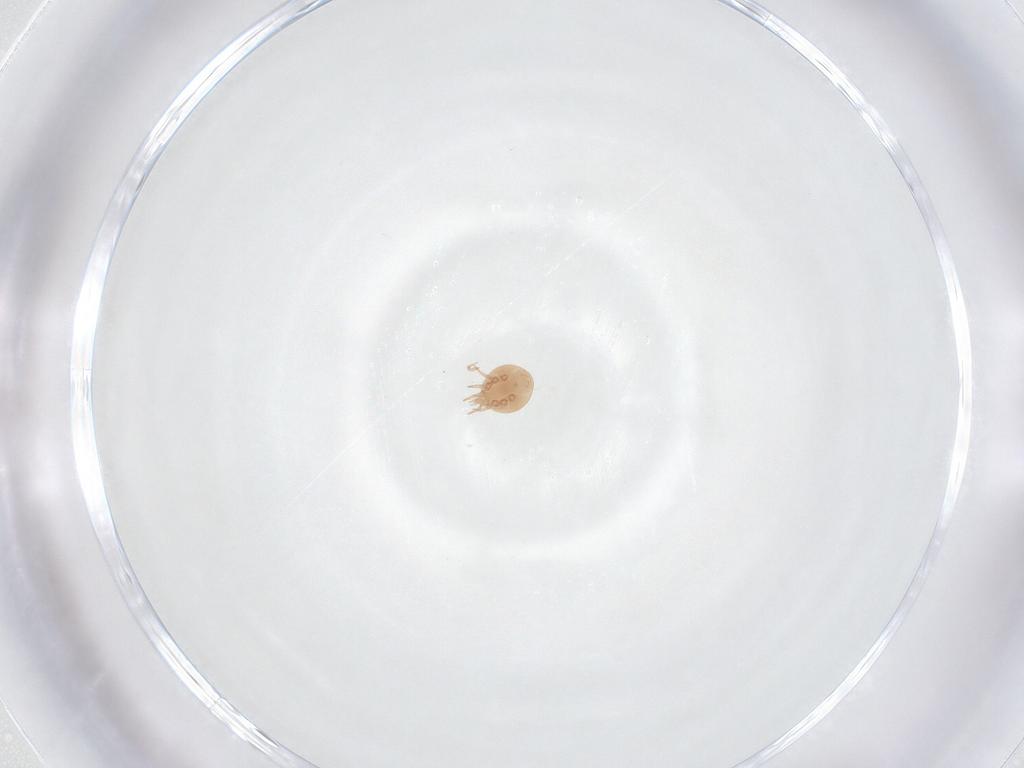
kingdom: Animalia
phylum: Arthropoda
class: Arachnida
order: Mesostigmata
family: Trematuridae
